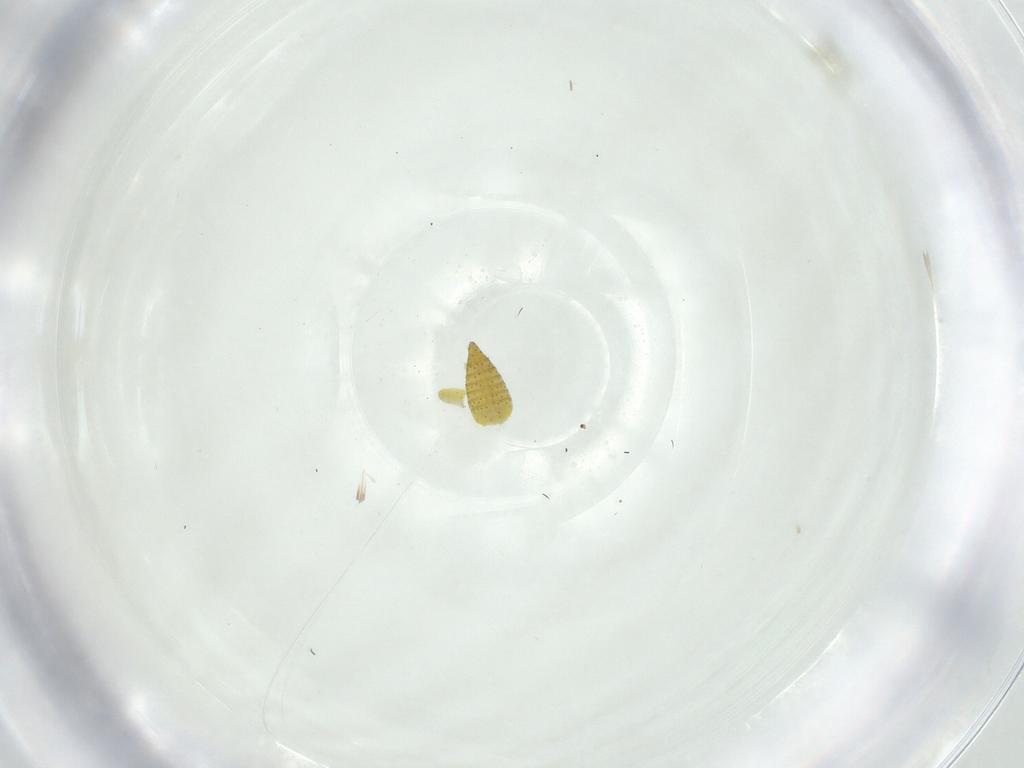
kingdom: Animalia
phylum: Arthropoda
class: Insecta
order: Hemiptera
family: Cicadellidae
